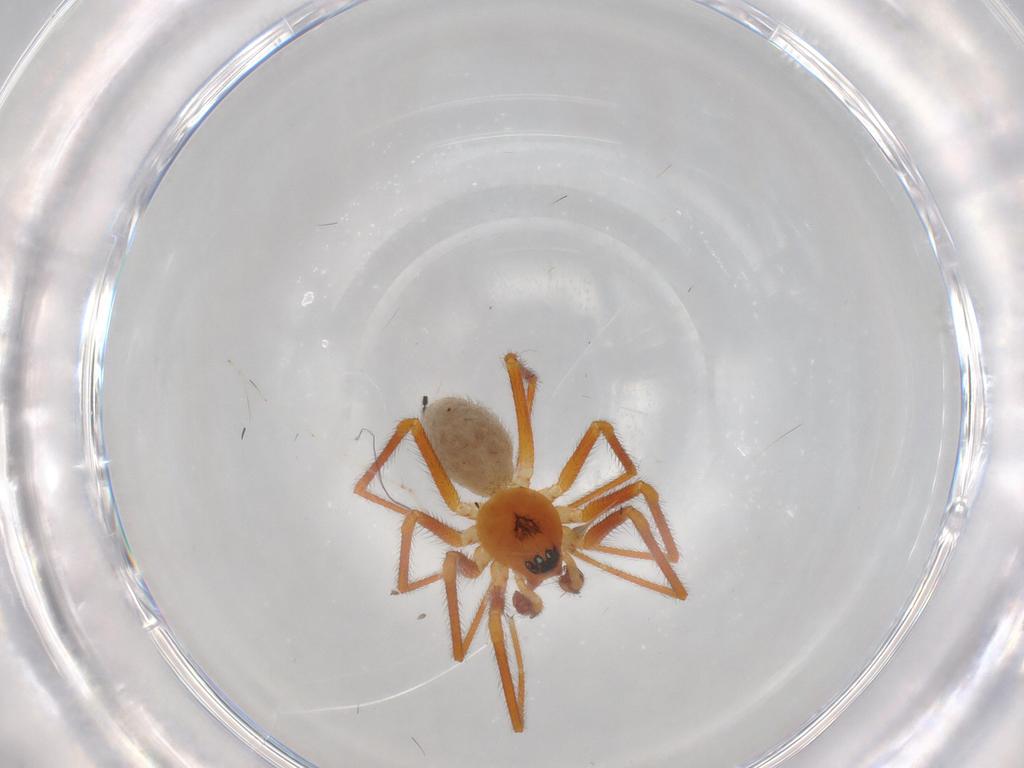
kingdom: Animalia
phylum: Arthropoda
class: Arachnida
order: Araneae
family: Linyphiidae
